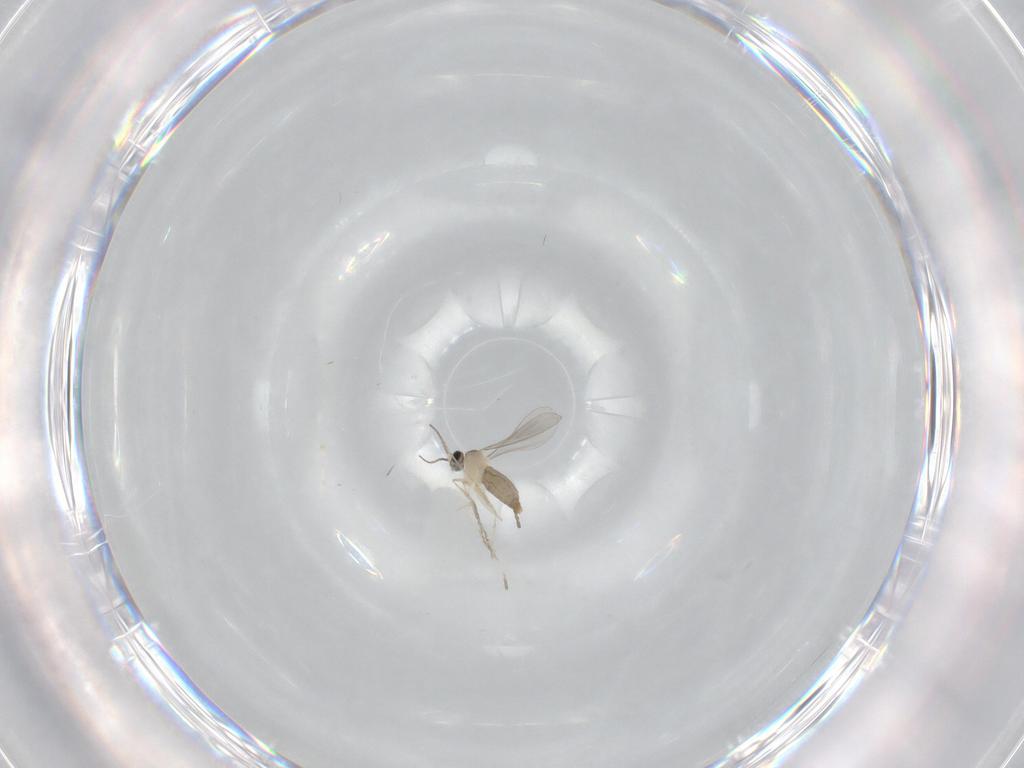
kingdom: Animalia
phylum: Arthropoda
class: Insecta
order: Diptera
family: Cecidomyiidae
